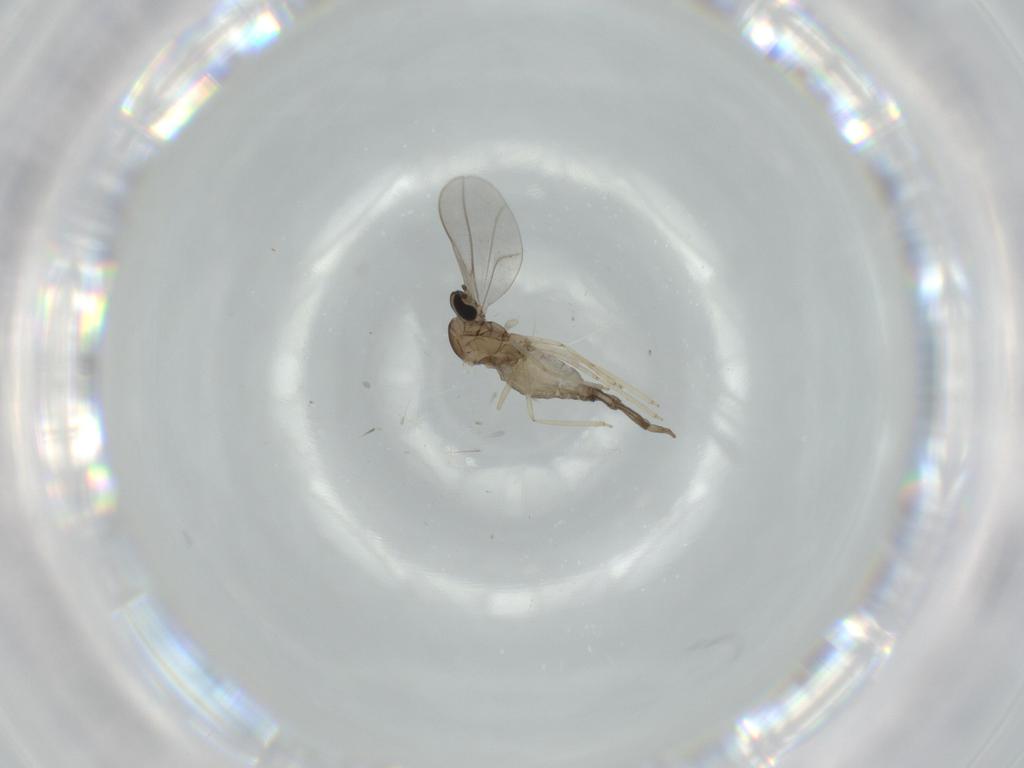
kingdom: Animalia
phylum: Arthropoda
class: Insecta
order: Diptera
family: Cecidomyiidae
